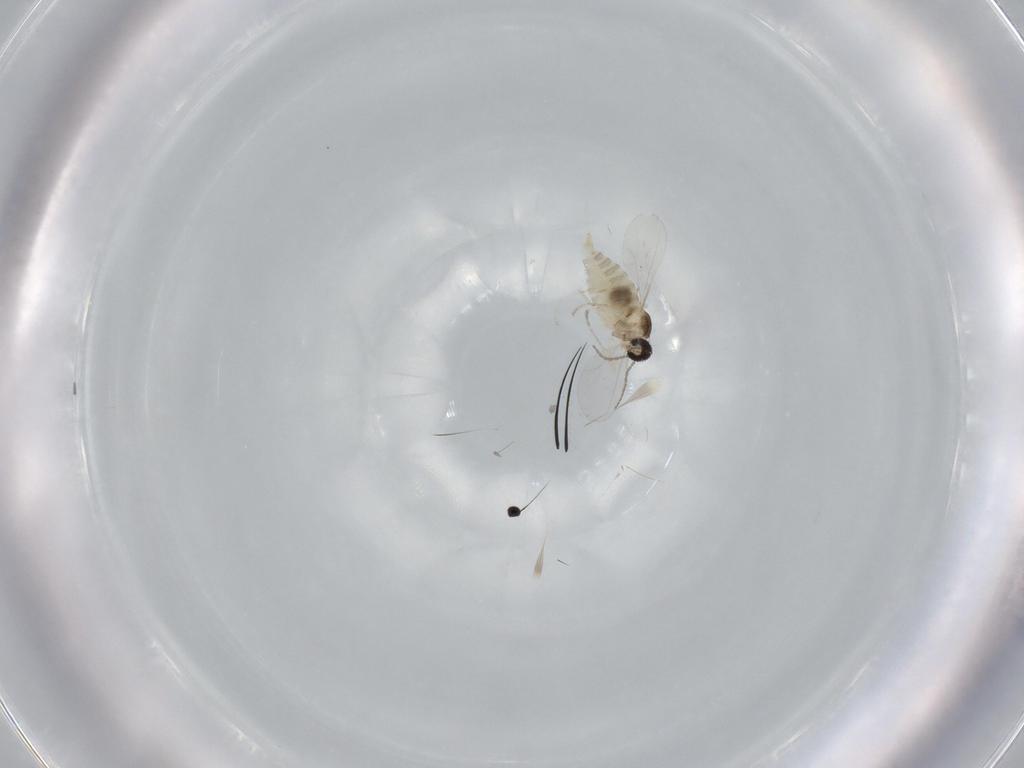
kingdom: Animalia
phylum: Arthropoda
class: Insecta
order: Diptera
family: Cecidomyiidae
